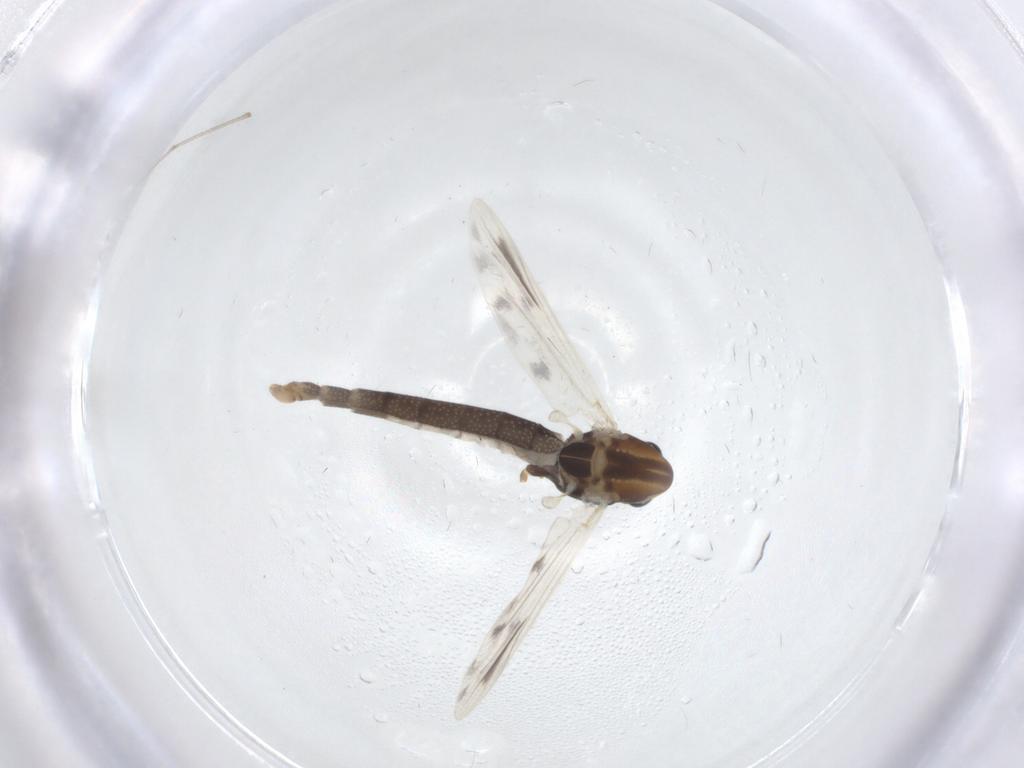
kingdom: Animalia
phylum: Arthropoda
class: Insecta
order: Diptera
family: Chironomidae
